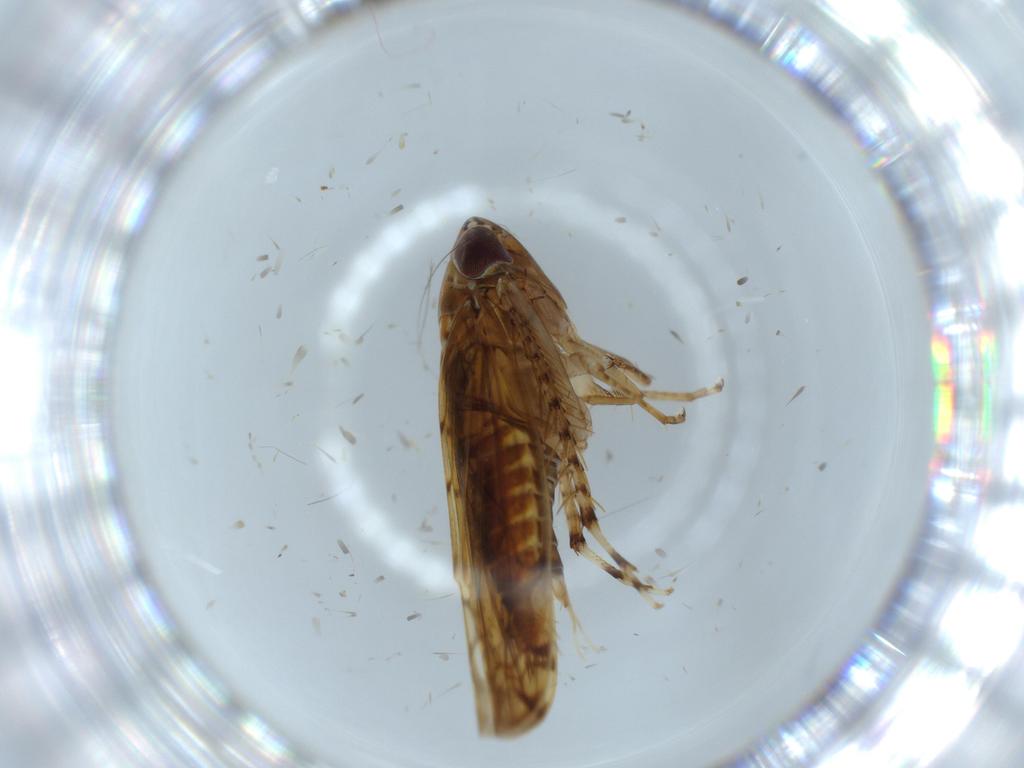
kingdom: Animalia
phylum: Arthropoda
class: Insecta
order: Hemiptera
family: Cicadellidae
